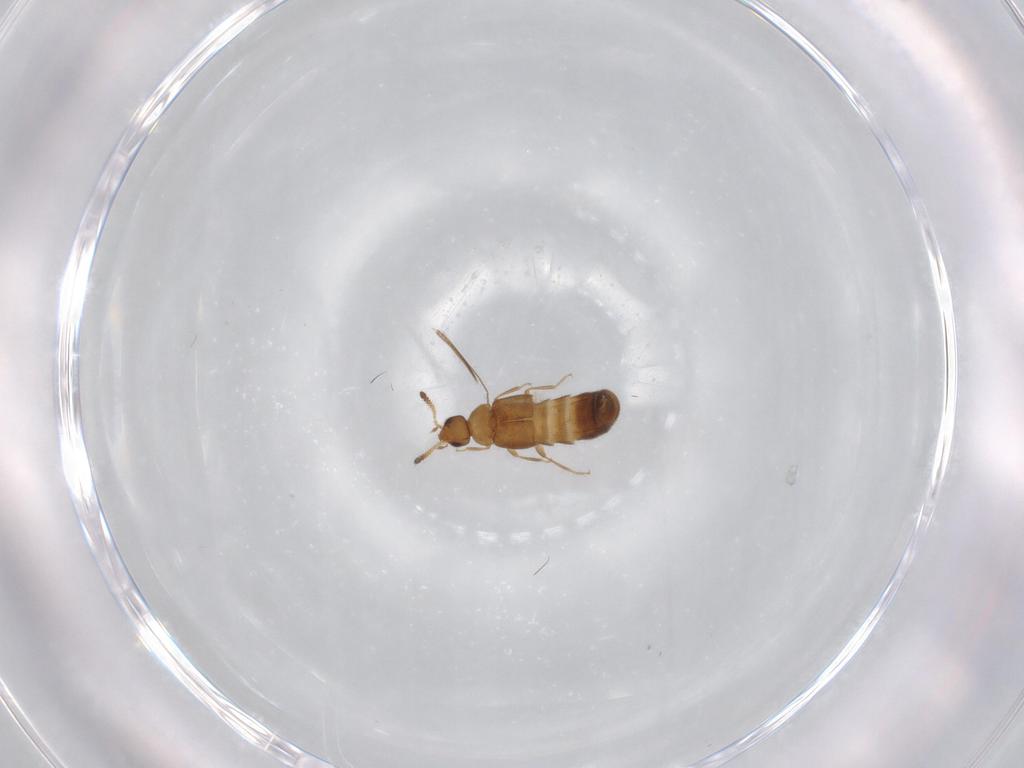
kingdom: Animalia
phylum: Arthropoda
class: Insecta
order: Coleoptera
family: Staphylinidae
